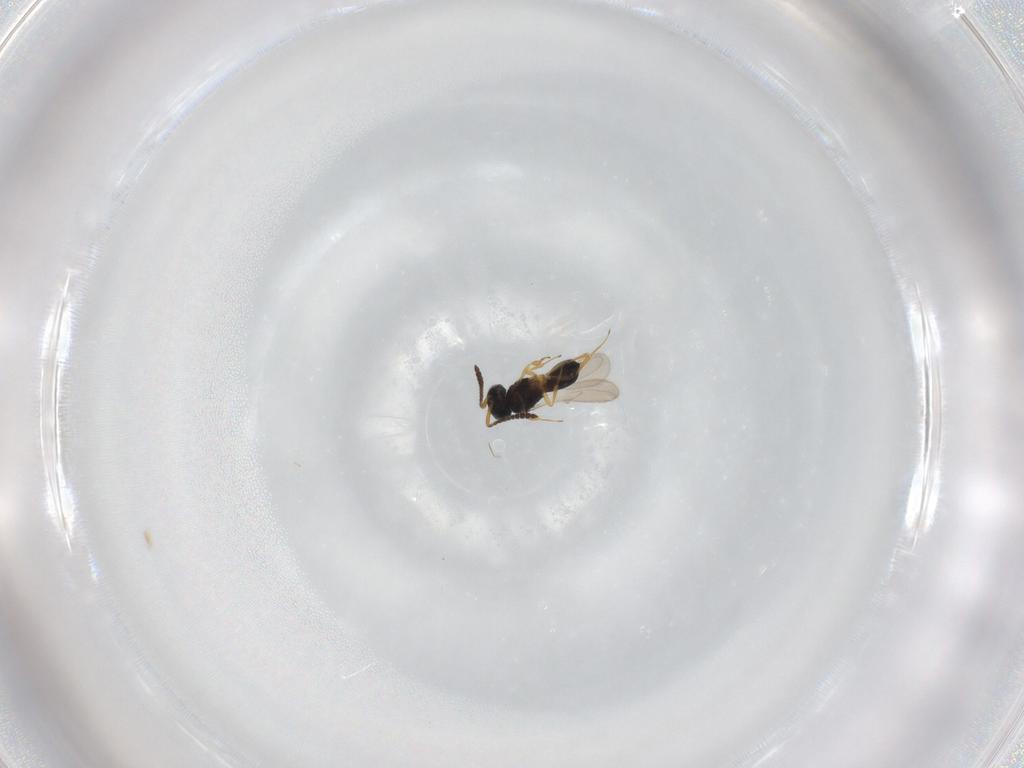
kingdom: Animalia
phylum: Arthropoda
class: Insecta
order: Hymenoptera
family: Scelionidae
